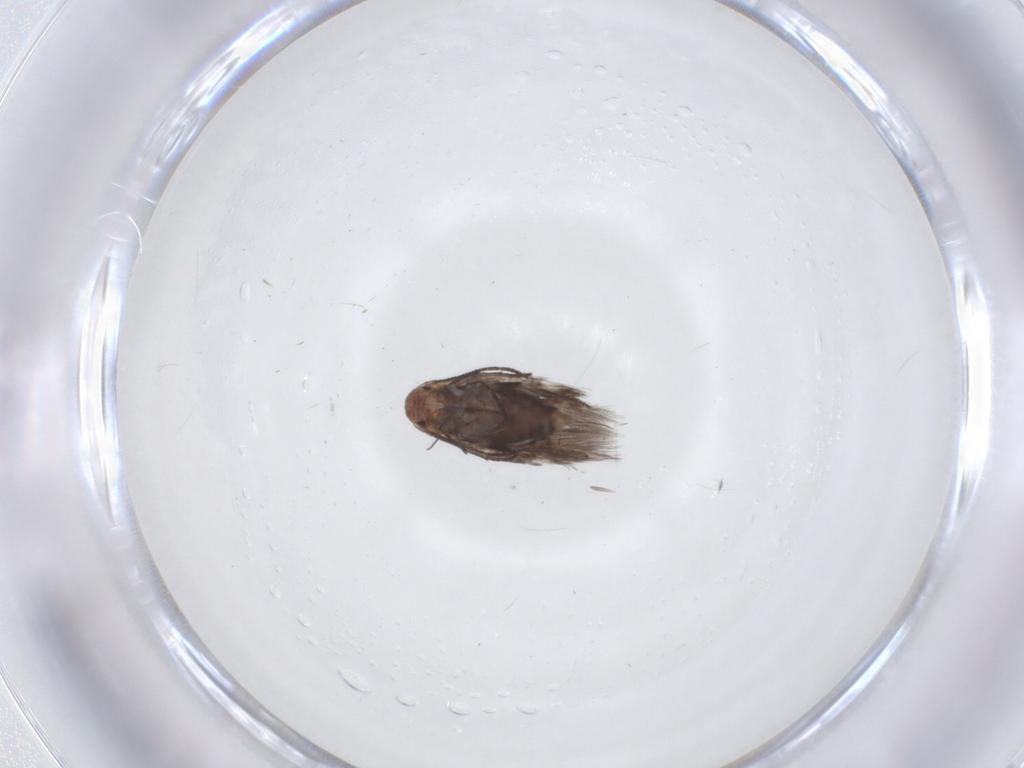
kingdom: Animalia
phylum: Arthropoda
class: Insecta
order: Lepidoptera
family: Lyonetiidae
